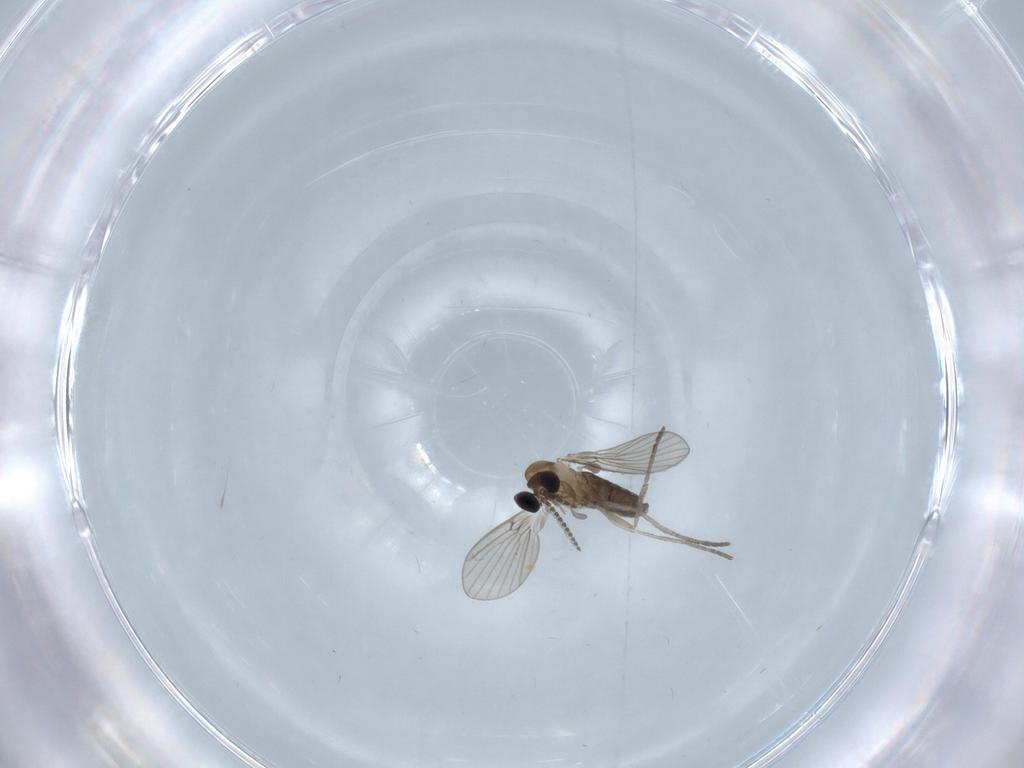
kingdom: Animalia
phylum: Arthropoda
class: Insecta
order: Diptera
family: Psychodidae
